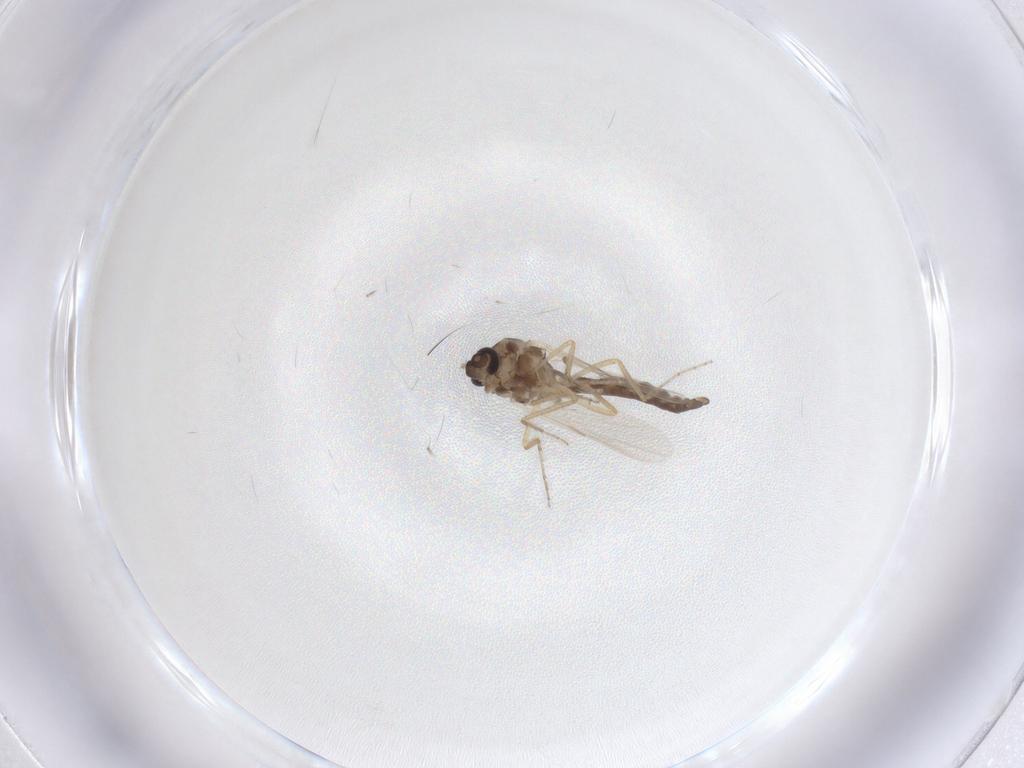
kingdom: Animalia
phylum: Arthropoda
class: Insecta
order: Diptera
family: Ceratopogonidae
